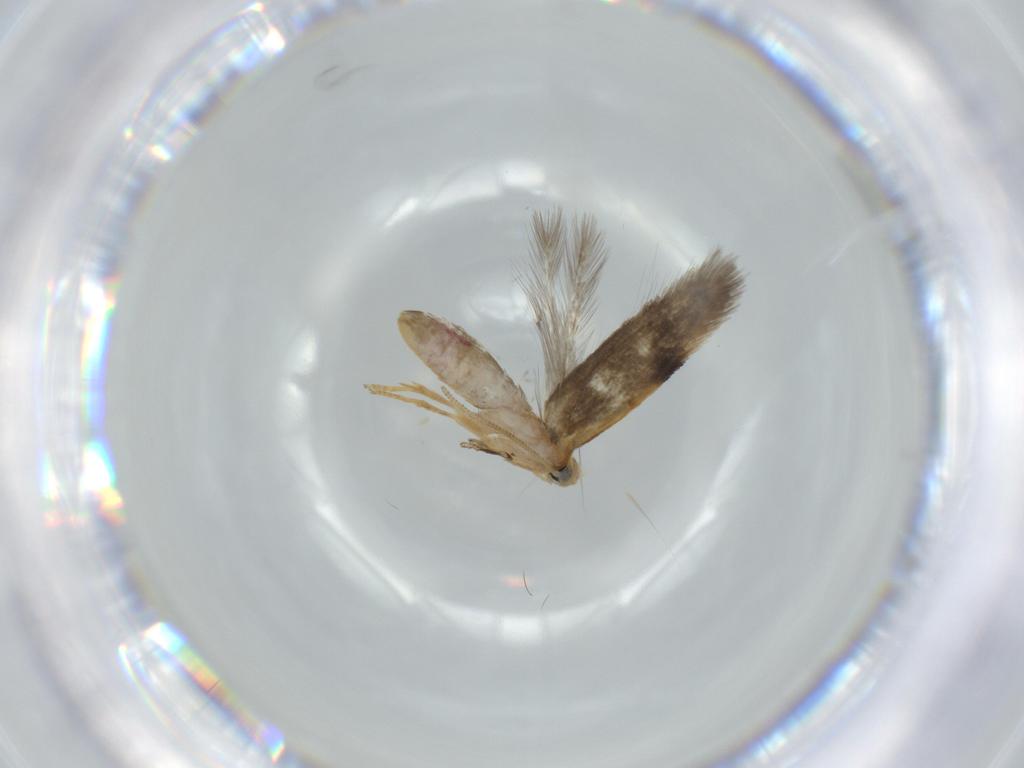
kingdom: Animalia
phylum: Arthropoda
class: Insecta
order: Lepidoptera
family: Nepticulidae
